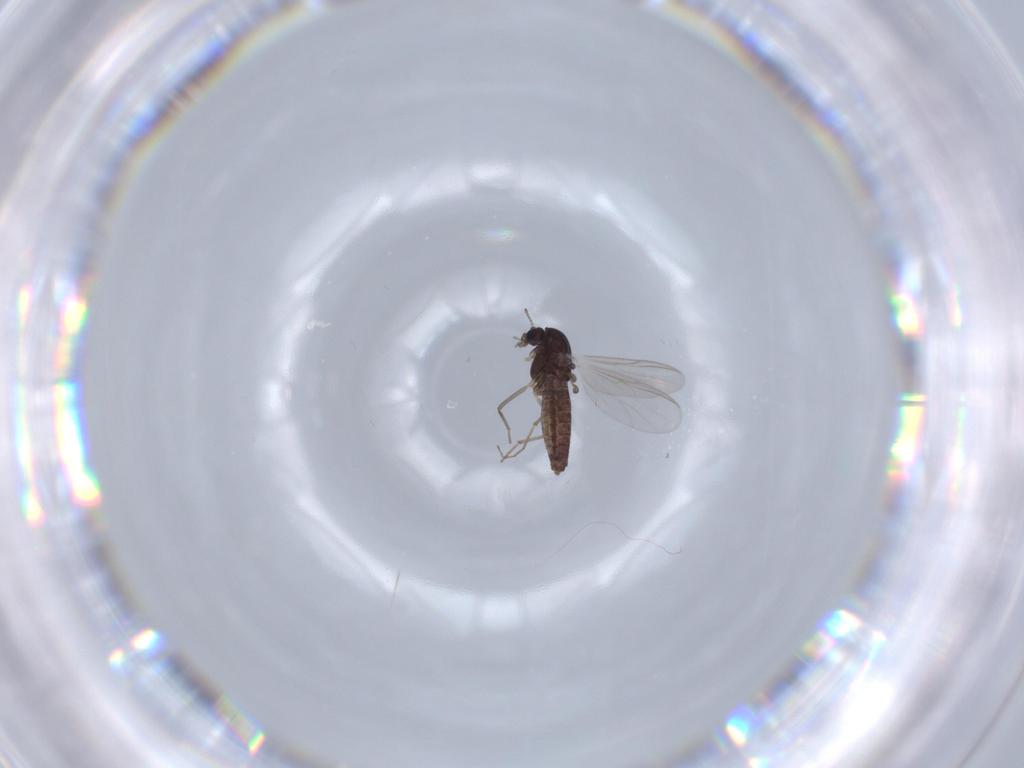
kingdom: Animalia
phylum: Arthropoda
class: Insecta
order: Diptera
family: Chironomidae
